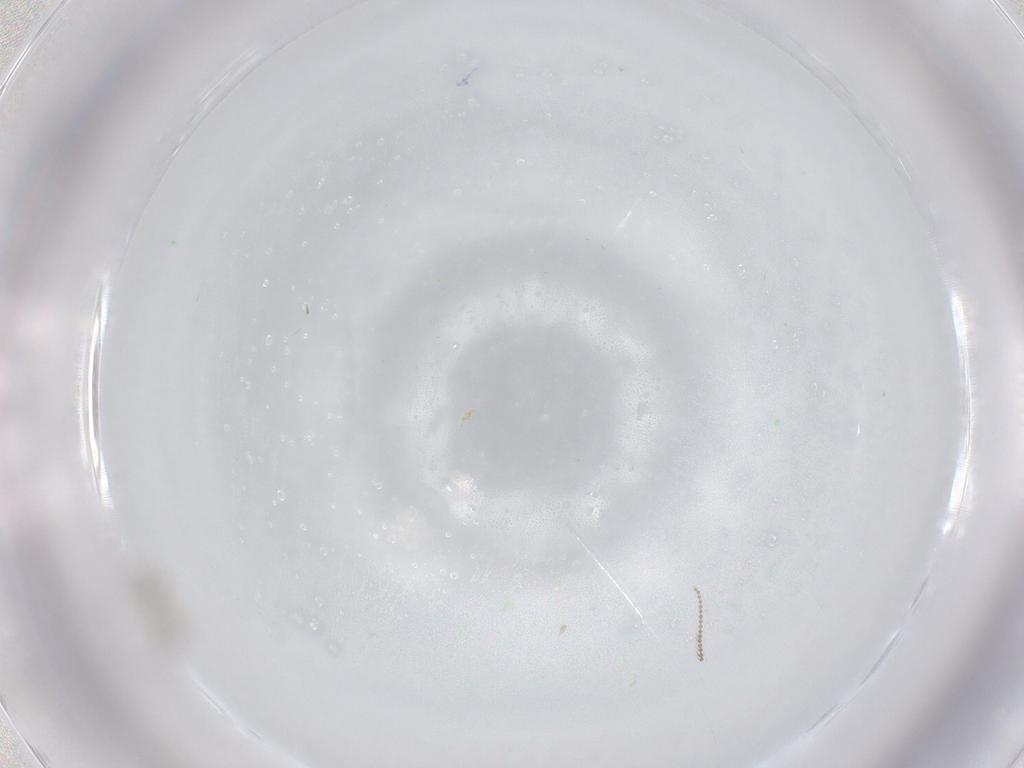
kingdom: Animalia
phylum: Arthropoda
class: Insecta
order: Diptera
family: Cecidomyiidae
